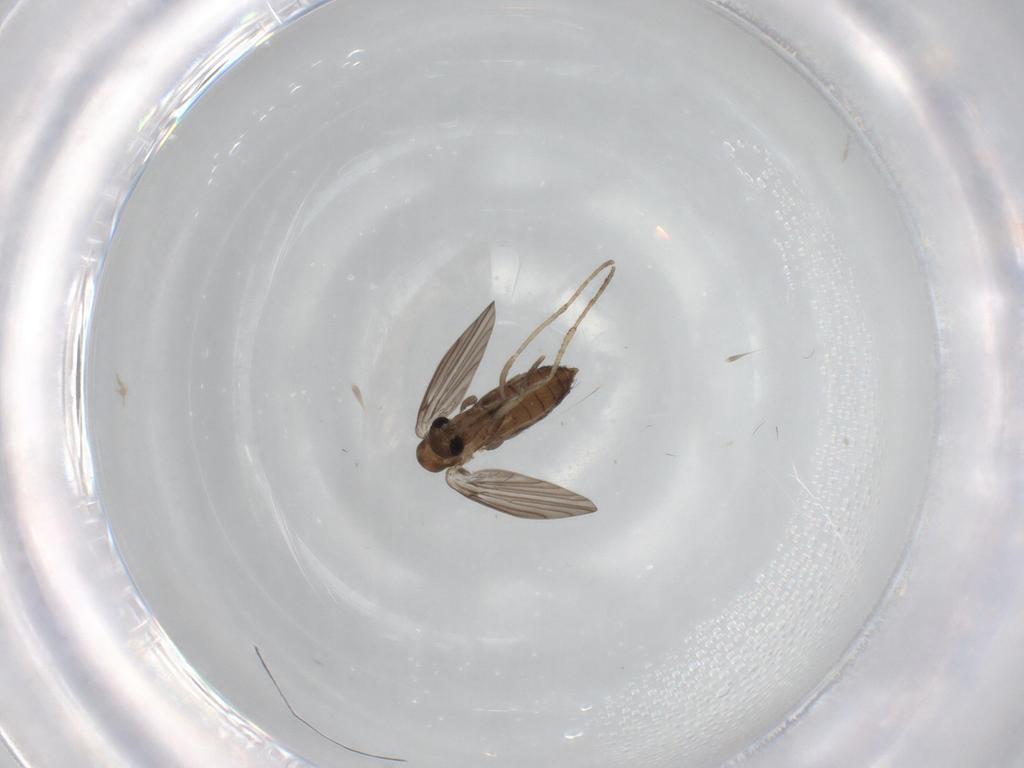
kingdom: Animalia
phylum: Arthropoda
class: Insecta
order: Diptera
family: Psychodidae
